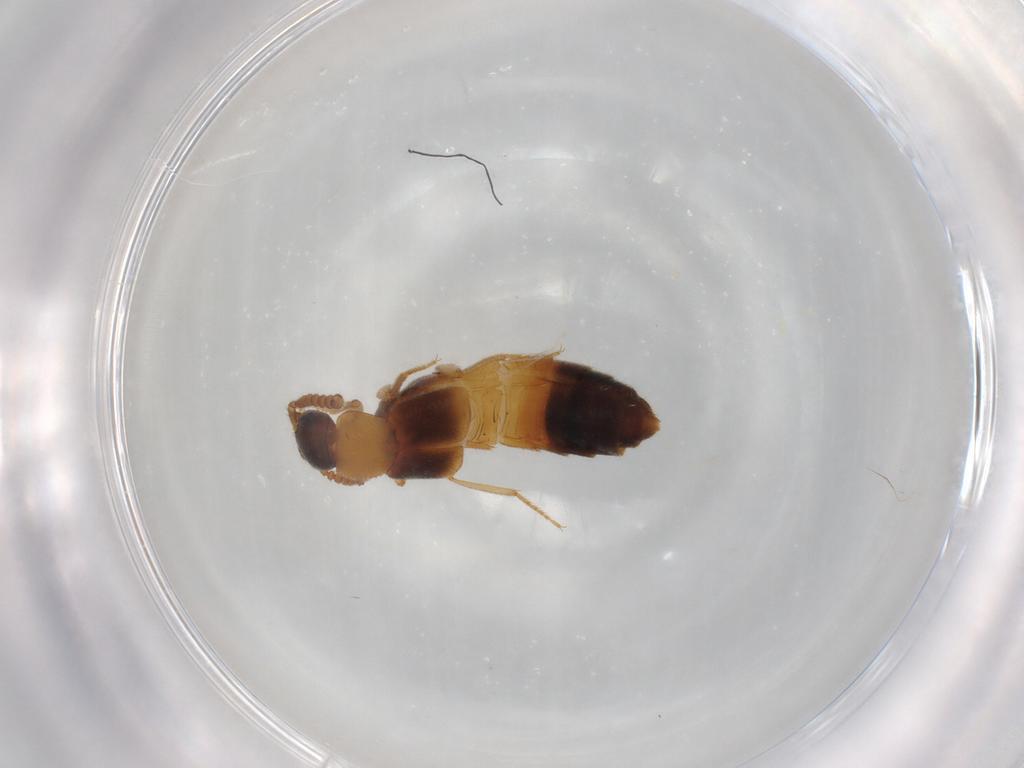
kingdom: Animalia
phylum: Arthropoda
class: Insecta
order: Coleoptera
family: Staphylinidae
